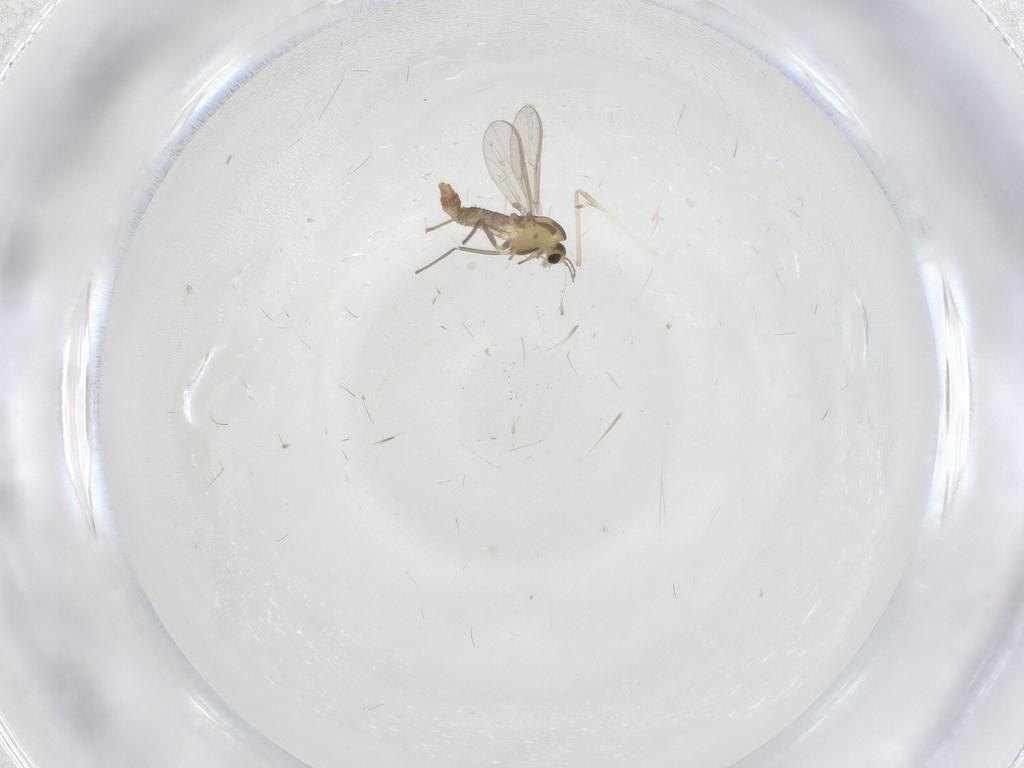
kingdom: Animalia
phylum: Arthropoda
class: Insecta
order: Diptera
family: Chironomidae
